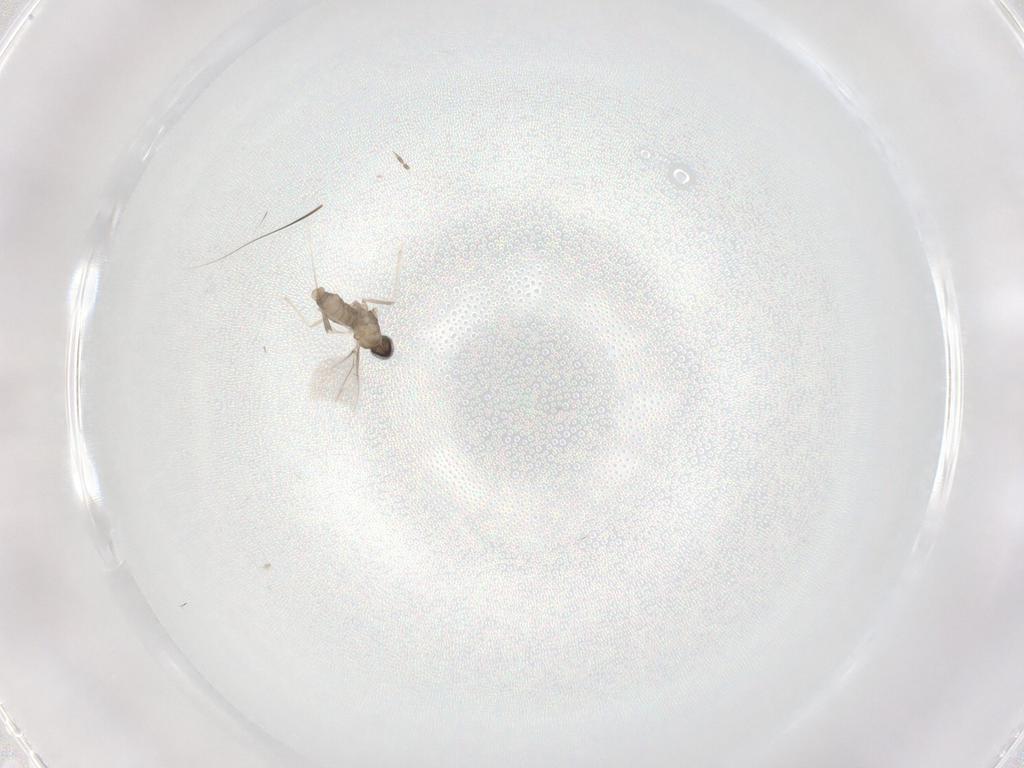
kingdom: Animalia
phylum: Arthropoda
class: Insecta
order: Diptera
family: Cecidomyiidae
